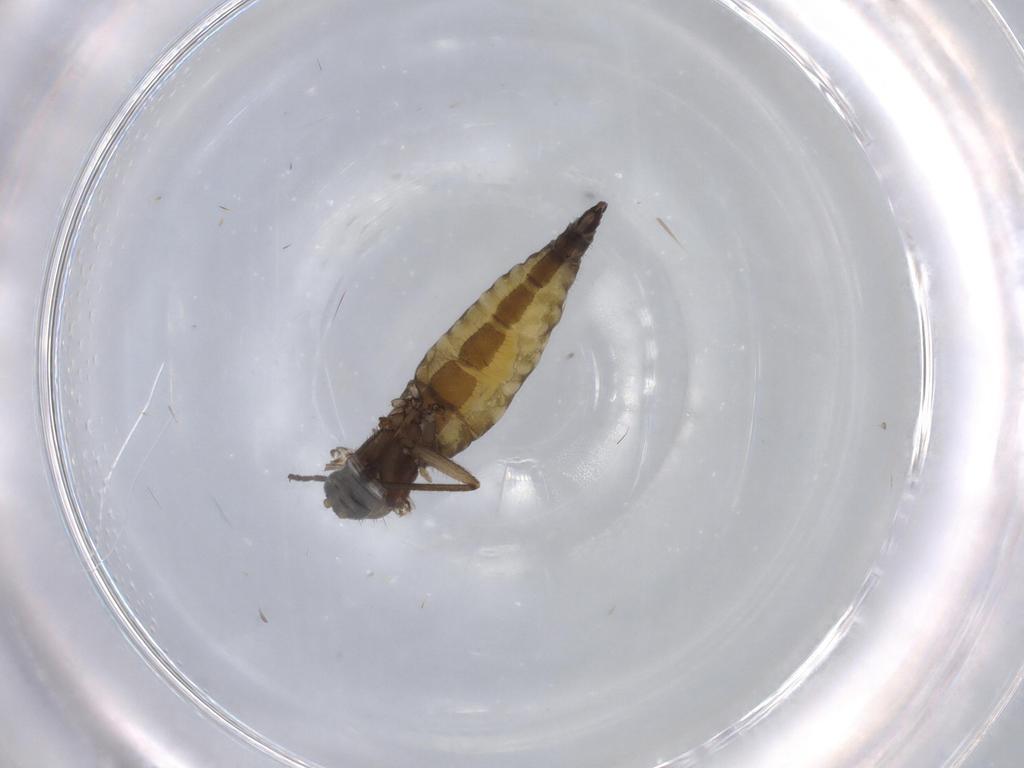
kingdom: Animalia
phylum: Arthropoda
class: Insecta
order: Diptera
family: Sciaridae
